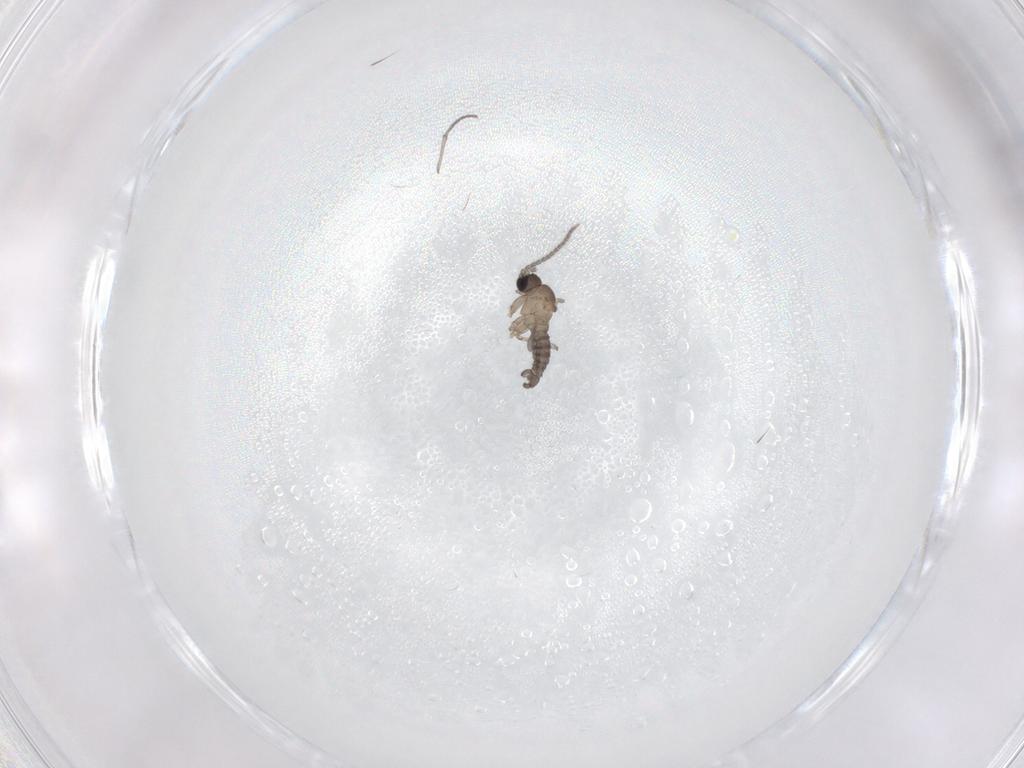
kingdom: Animalia
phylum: Arthropoda
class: Insecta
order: Diptera
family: Sciaridae
